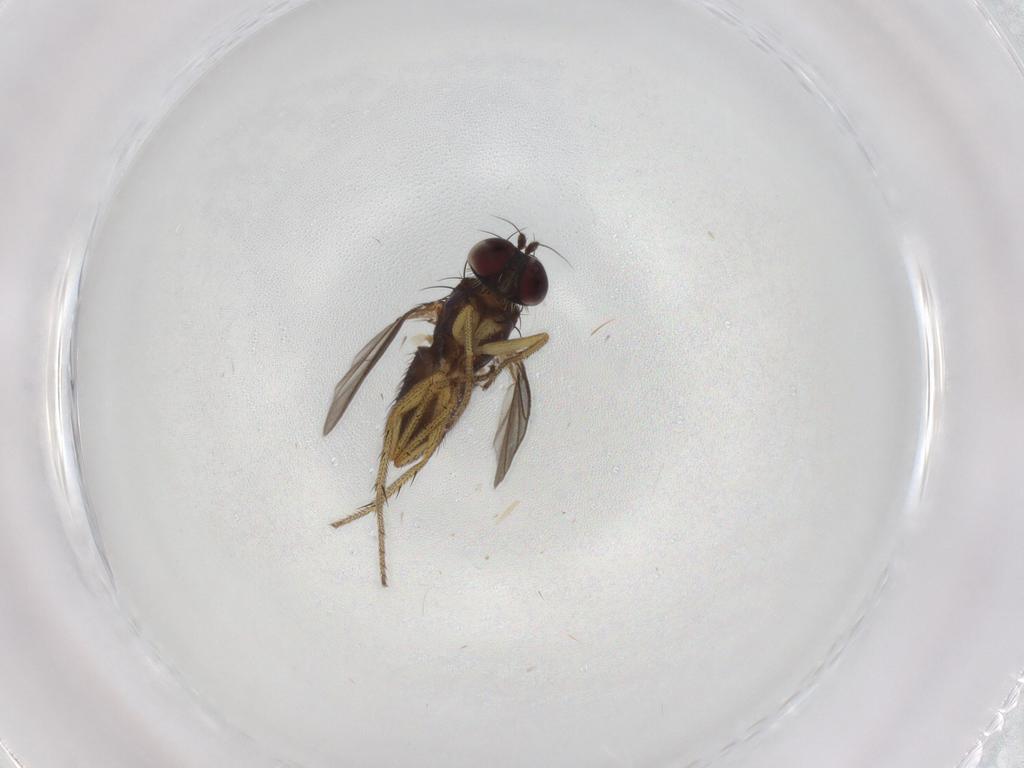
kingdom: Animalia
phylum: Arthropoda
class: Insecta
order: Diptera
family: Dolichopodidae
